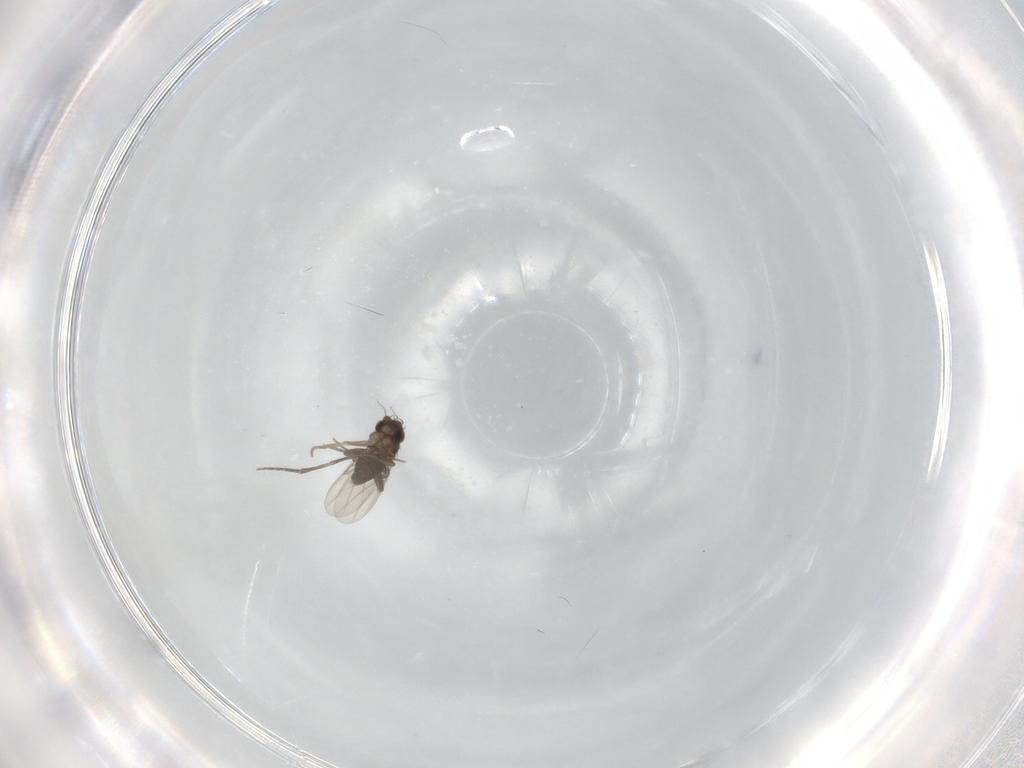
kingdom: Animalia
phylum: Arthropoda
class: Insecta
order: Diptera
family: Phoridae
